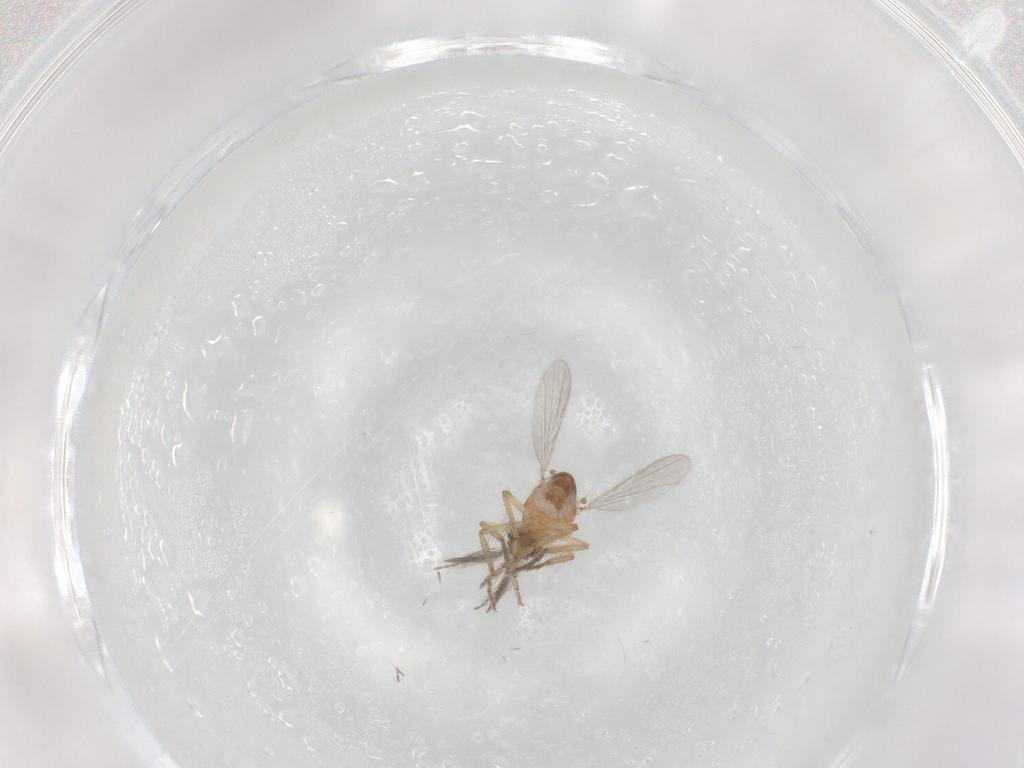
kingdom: Animalia
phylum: Arthropoda
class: Insecta
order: Diptera
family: Ceratopogonidae
